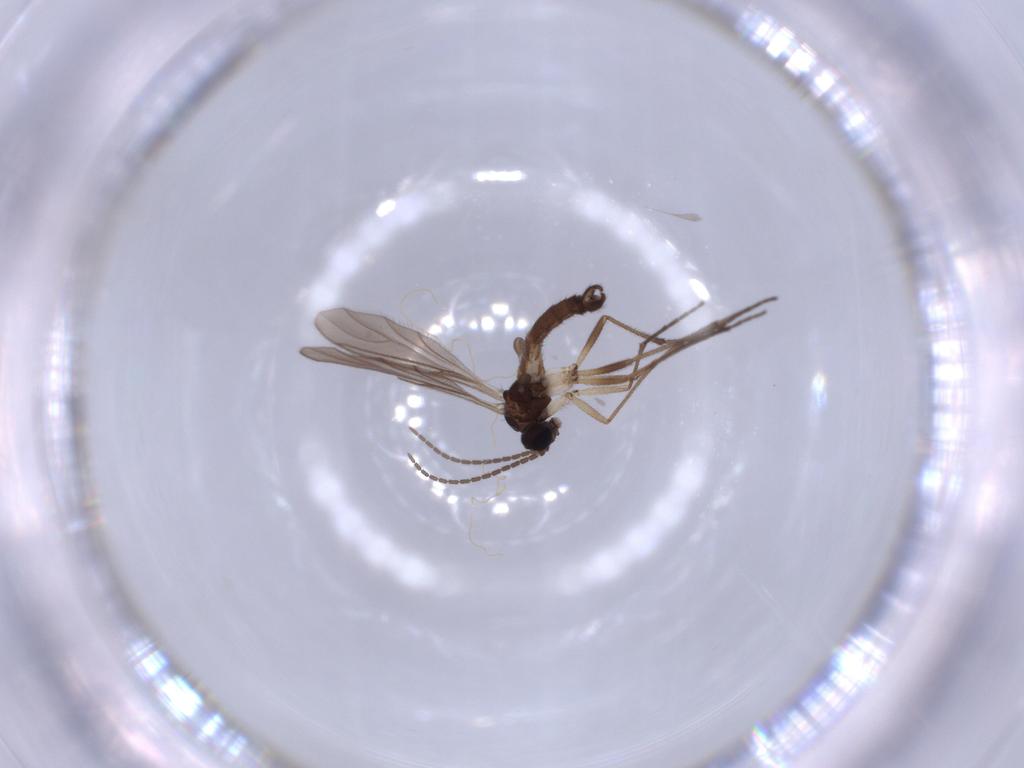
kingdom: Animalia
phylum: Arthropoda
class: Insecta
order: Diptera
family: Sciaridae
